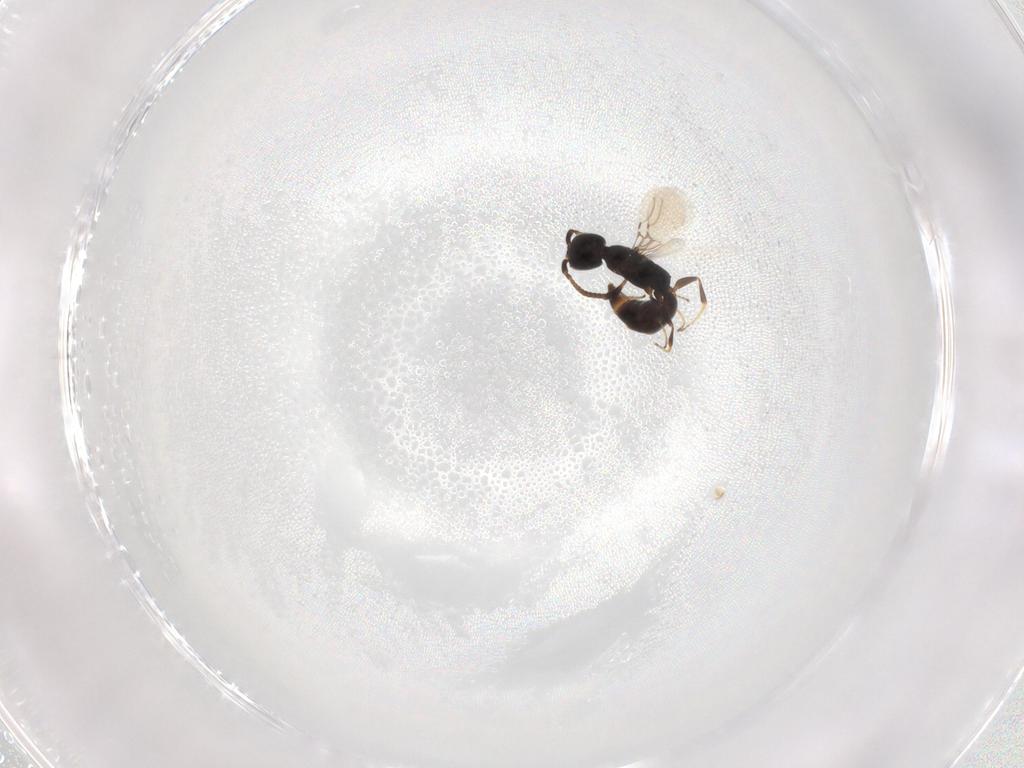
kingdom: Animalia
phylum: Arthropoda
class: Insecta
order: Hymenoptera
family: Bethylidae
